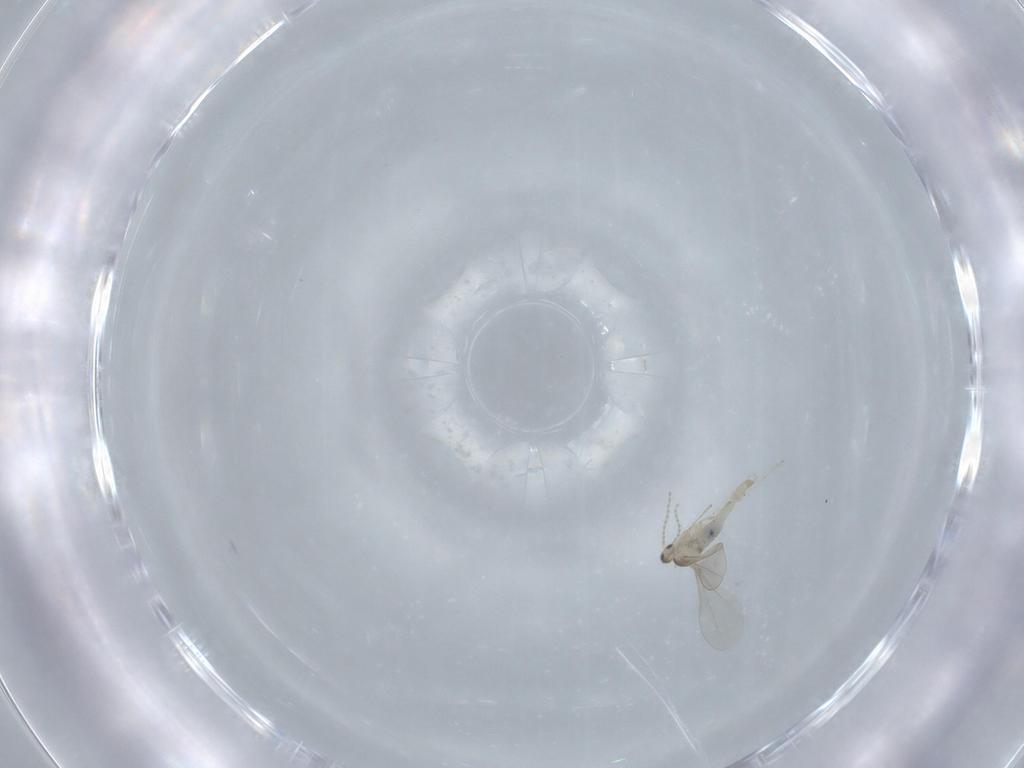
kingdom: Animalia
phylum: Arthropoda
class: Insecta
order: Diptera
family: Cecidomyiidae
